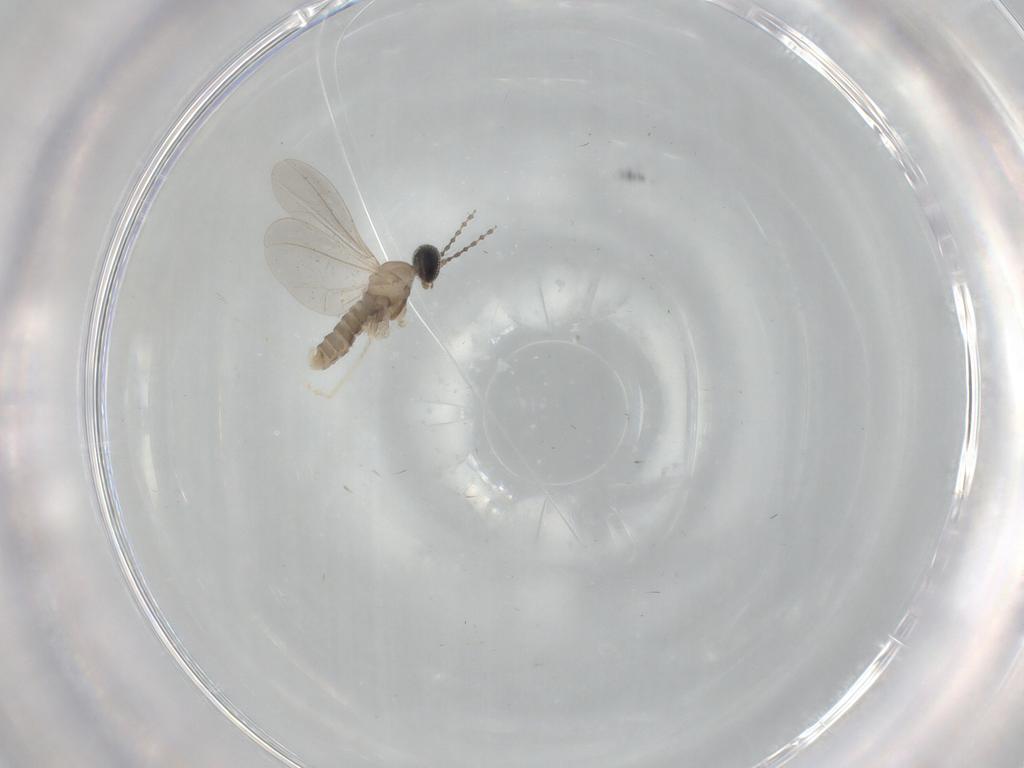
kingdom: Animalia
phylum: Arthropoda
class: Insecta
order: Diptera
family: Cecidomyiidae
